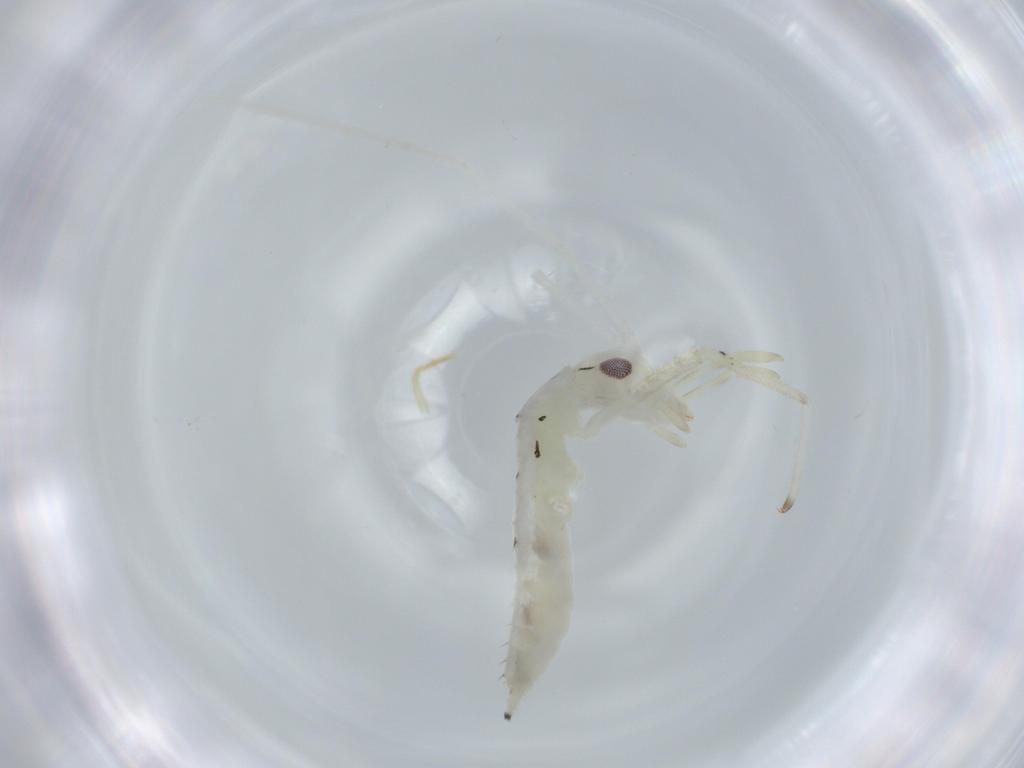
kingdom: Animalia
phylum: Arthropoda
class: Insecta
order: Orthoptera
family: Oecanthidae
